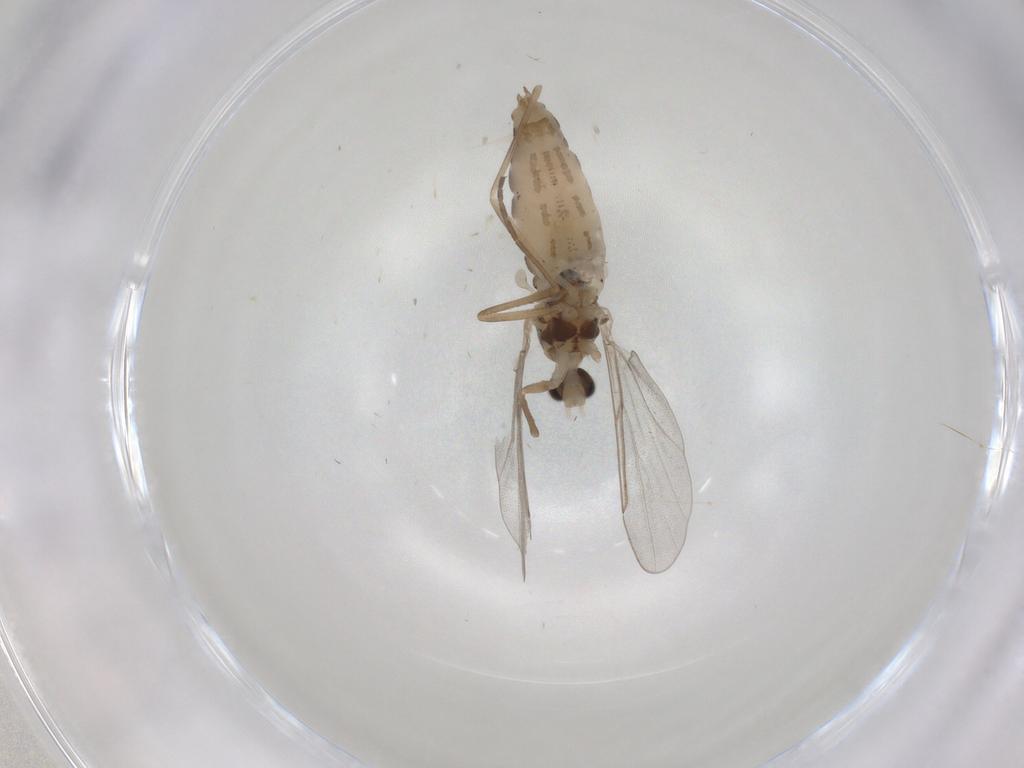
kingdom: Animalia
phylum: Arthropoda
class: Insecta
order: Diptera
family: Cecidomyiidae
